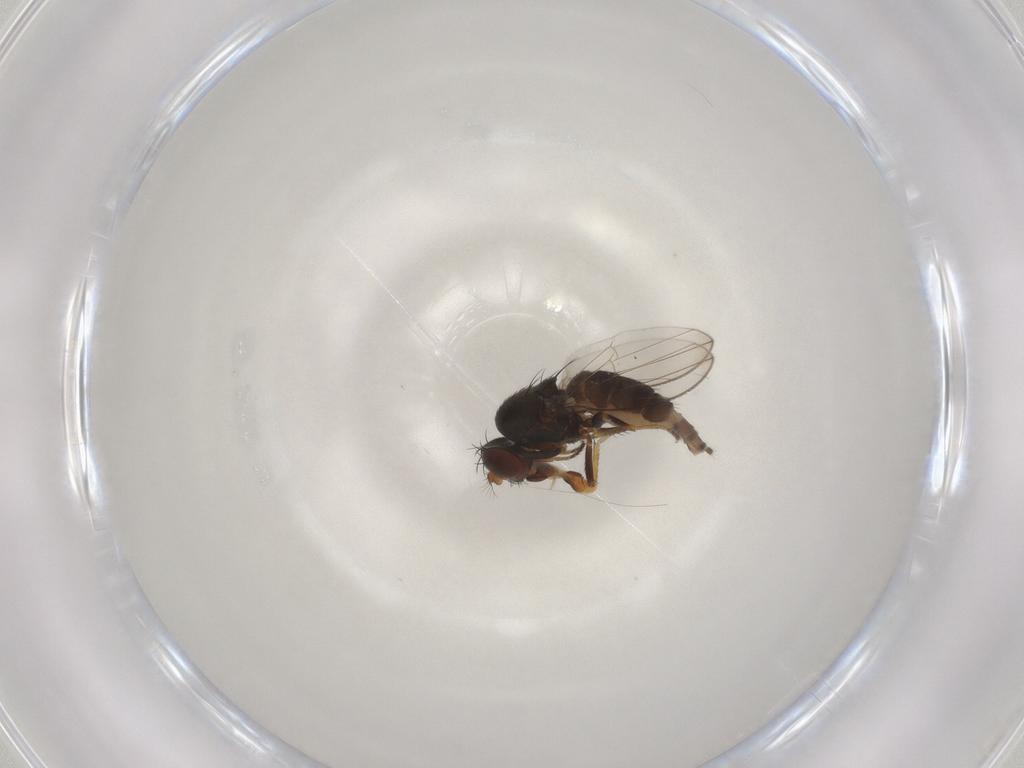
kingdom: Animalia
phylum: Arthropoda
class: Insecta
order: Diptera
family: Ephydridae
